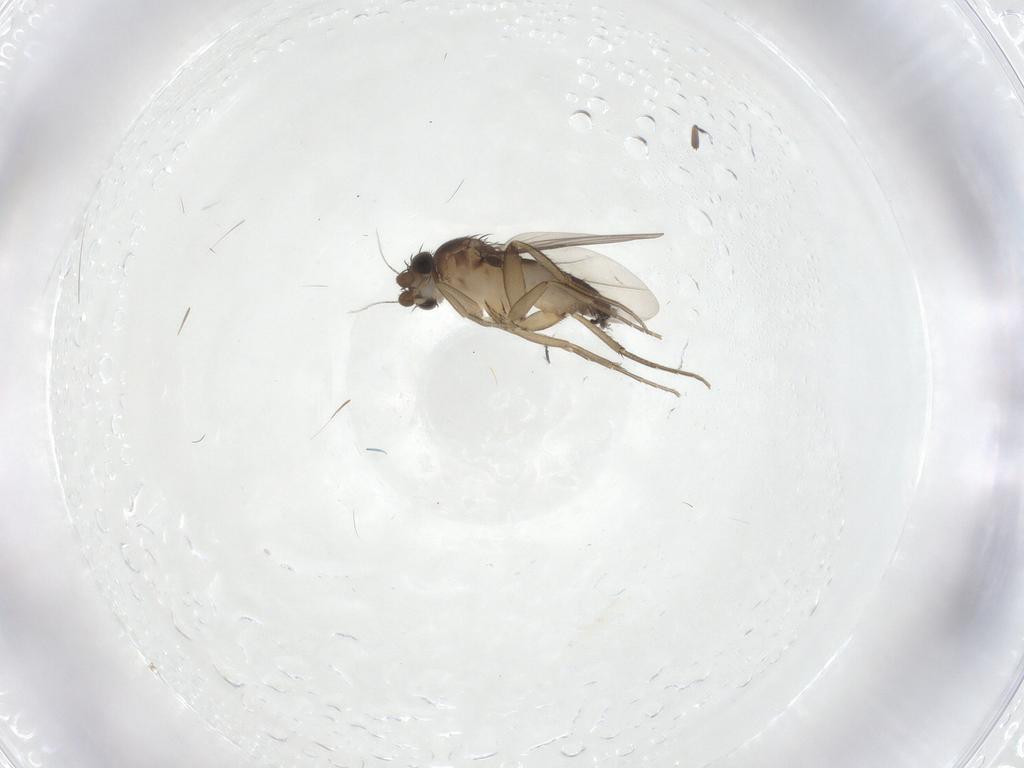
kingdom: Animalia
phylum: Arthropoda
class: Insecta
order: Diptera
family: Phoridae
